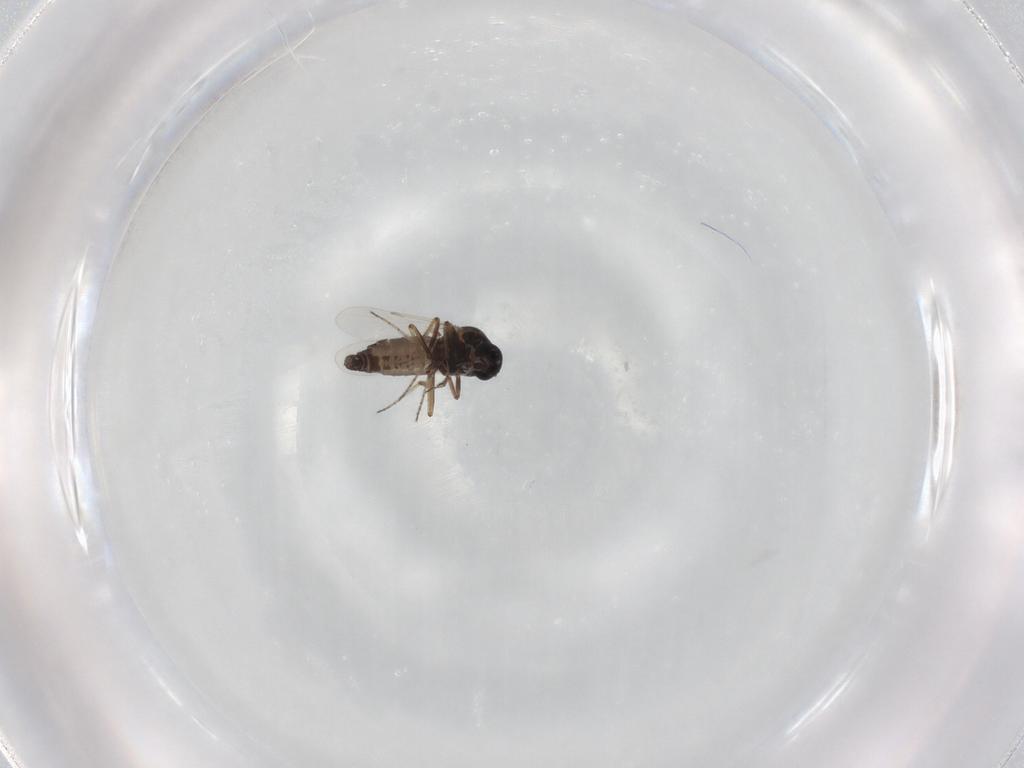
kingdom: Animalia
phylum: Arthropoda
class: Insecta
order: Diptera
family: Ceratopogonidae
